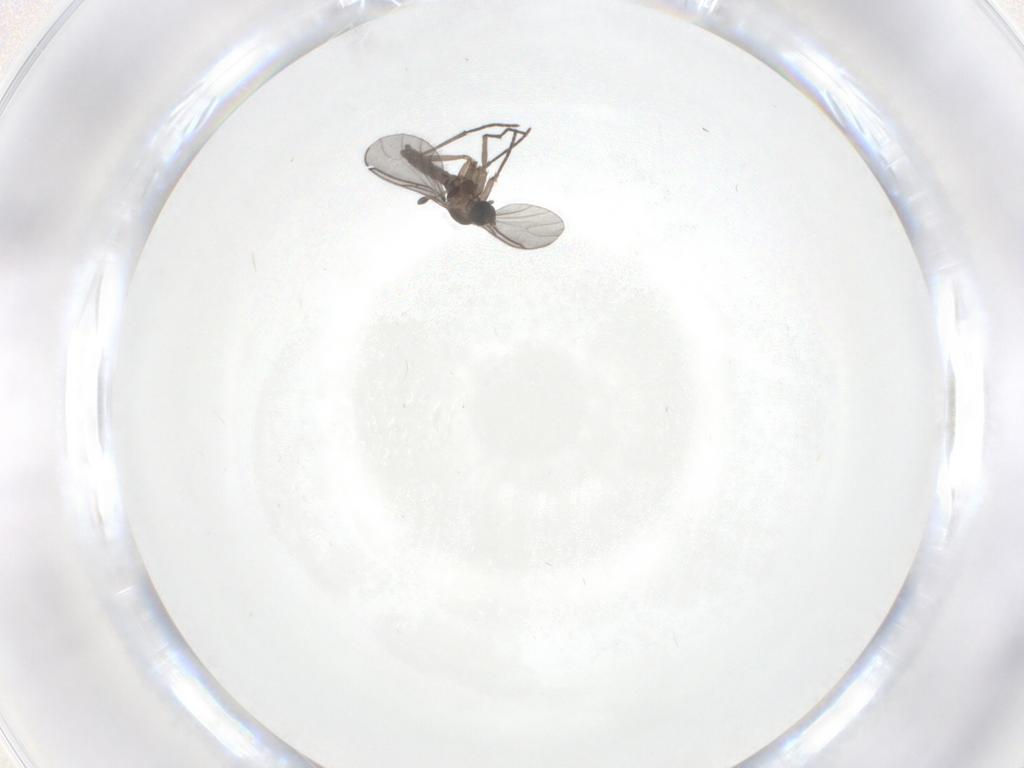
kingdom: Animalia
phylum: Arthropoda
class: Insecta
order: Diptera
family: Sciaridae
